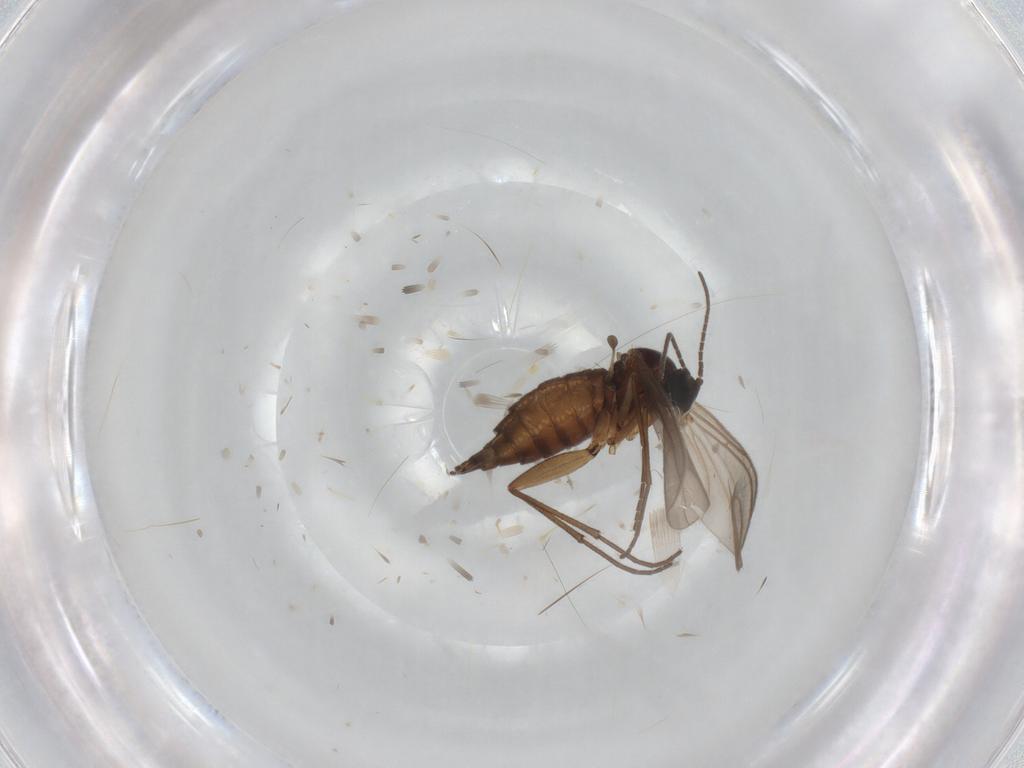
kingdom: Animalia
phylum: Arthropoda
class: Insecta
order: Diptera
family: Sciaridae
